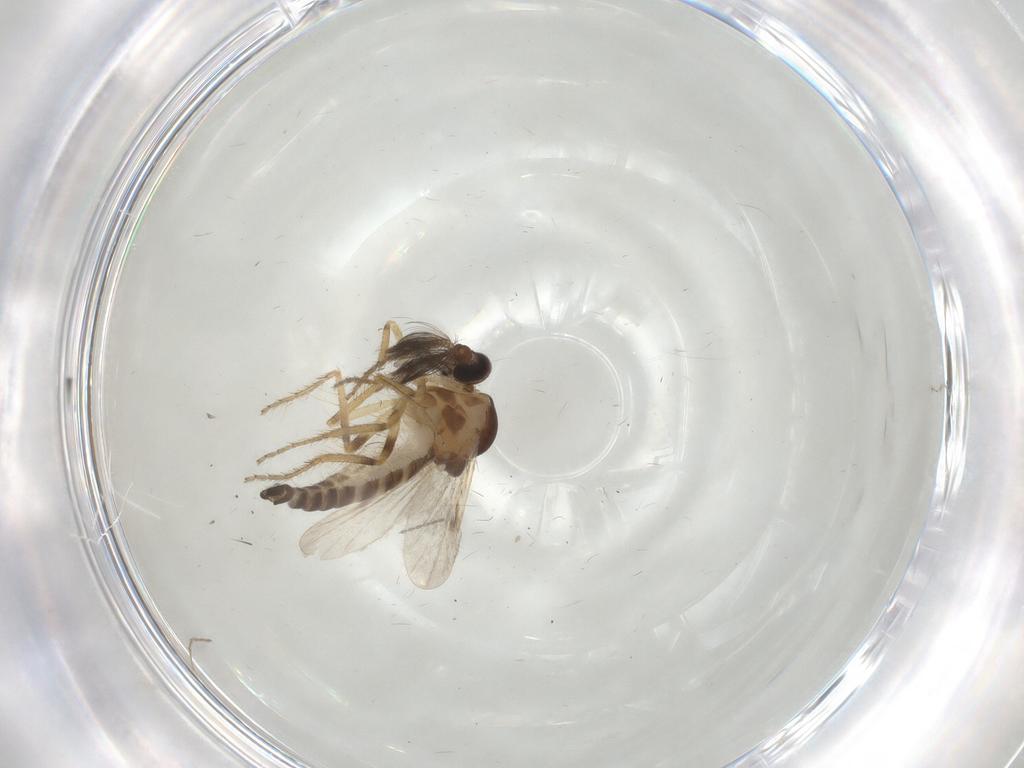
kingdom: Animalia
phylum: Arthropoda
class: Insecta
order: Diptera
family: Ceratopogonidae
